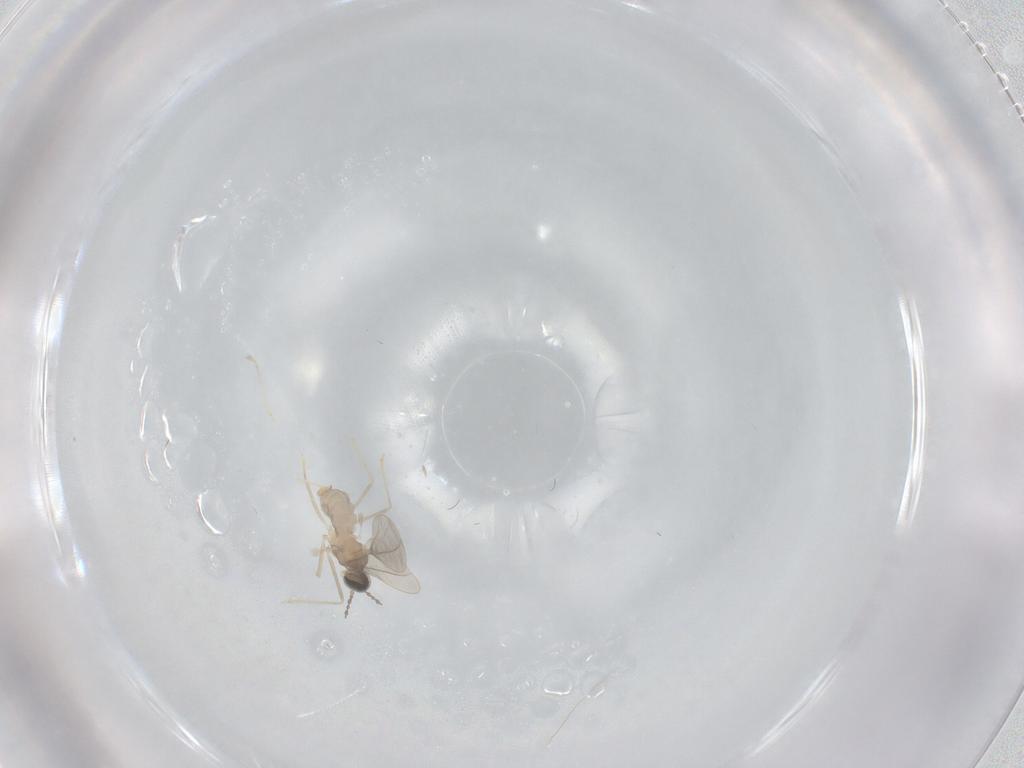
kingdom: Animalia
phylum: Arthropoda
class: Insecta
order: Diptera
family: Cecidomyiidae
